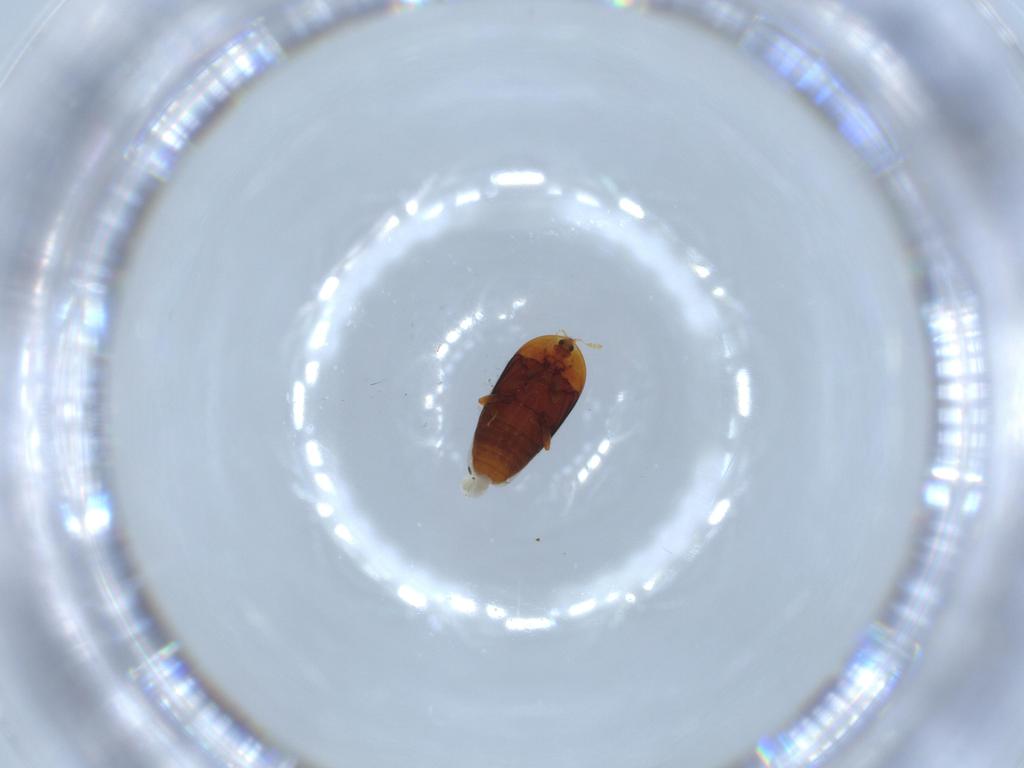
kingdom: Animalia
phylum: Arthropoda
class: Insecta
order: Coleoptera
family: Corylophidae
